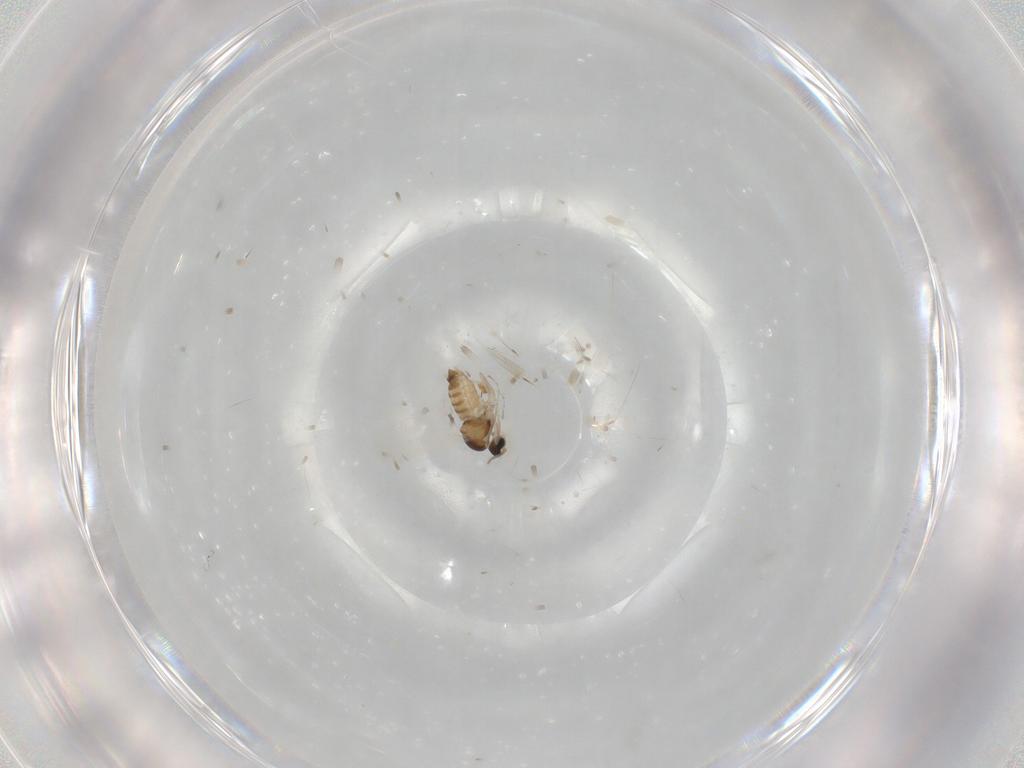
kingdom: Animalia
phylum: Arthropoda
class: Insecta
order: Diptera
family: Cecidomyiidae
